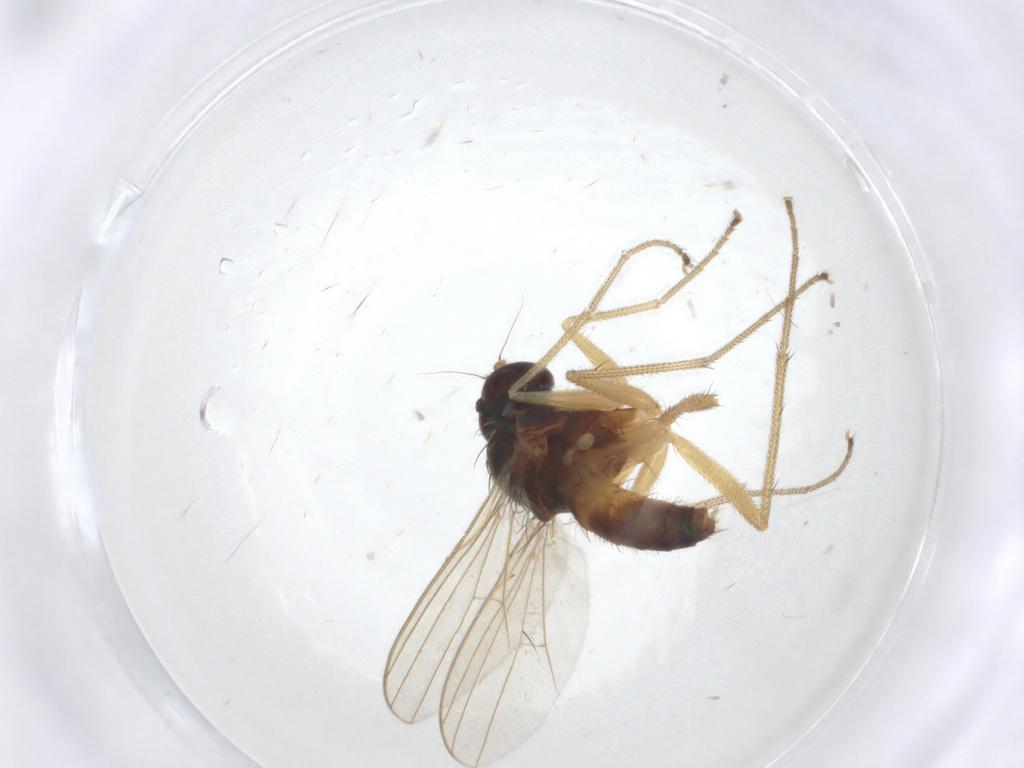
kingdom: Animalia
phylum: Arthropoda
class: Insecta
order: Diptera
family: Dolichopodidae
